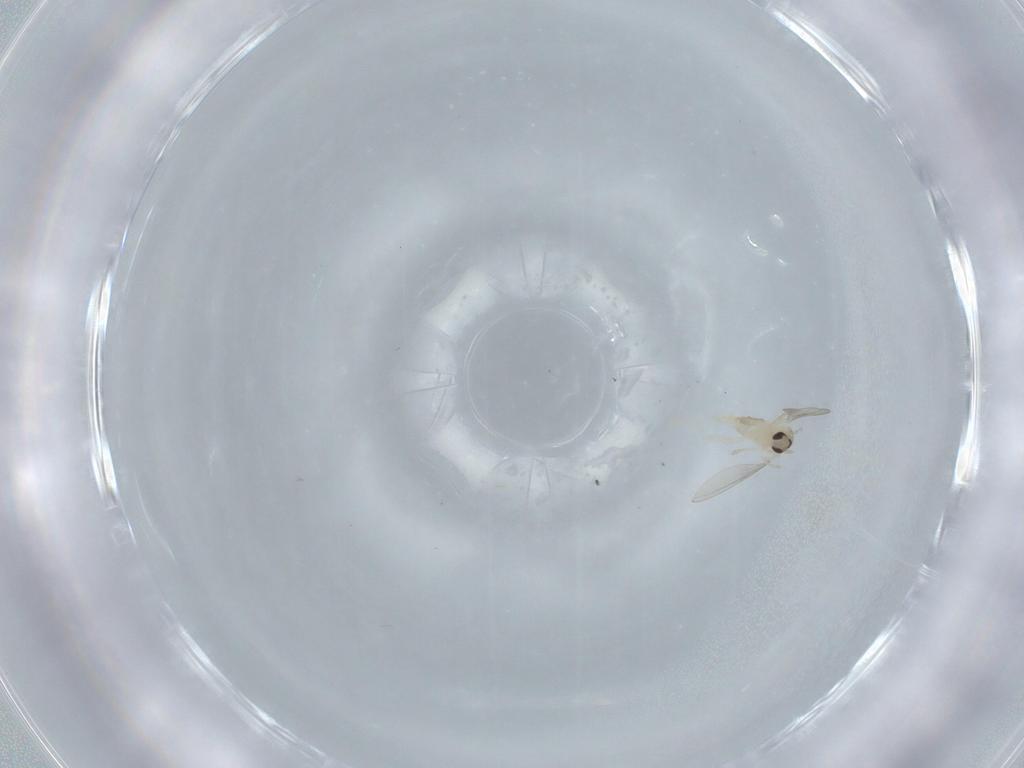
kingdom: Animalia
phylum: Arthropoda
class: Insecta
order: Diptera
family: Cecidomyiidae
